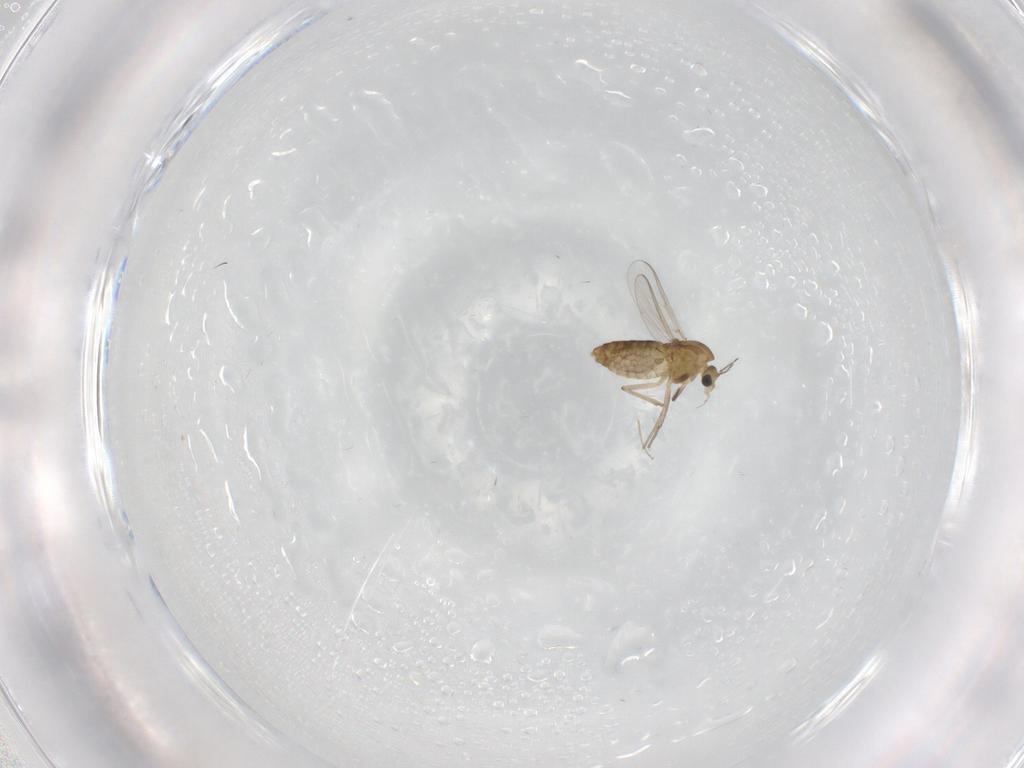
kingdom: Animalia
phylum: Arthropoda
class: Insecta
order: Diptera
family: Chironomidae
